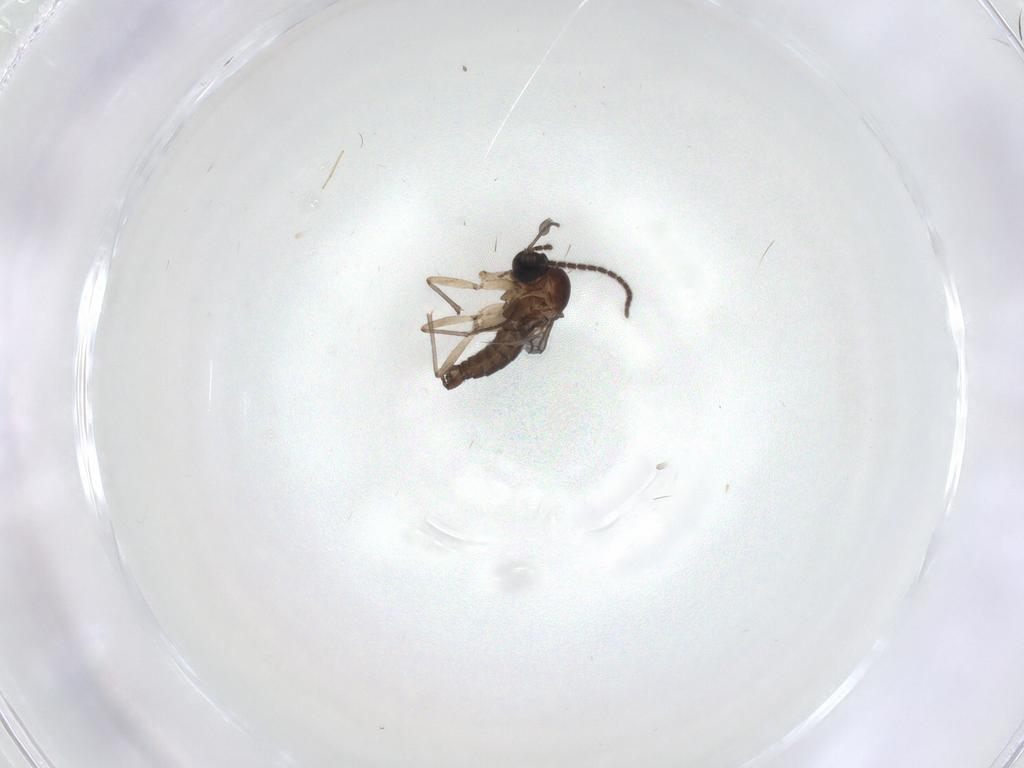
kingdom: Animalia
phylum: Arthropoda
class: Insecta
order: Diptera
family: Sciaridae
